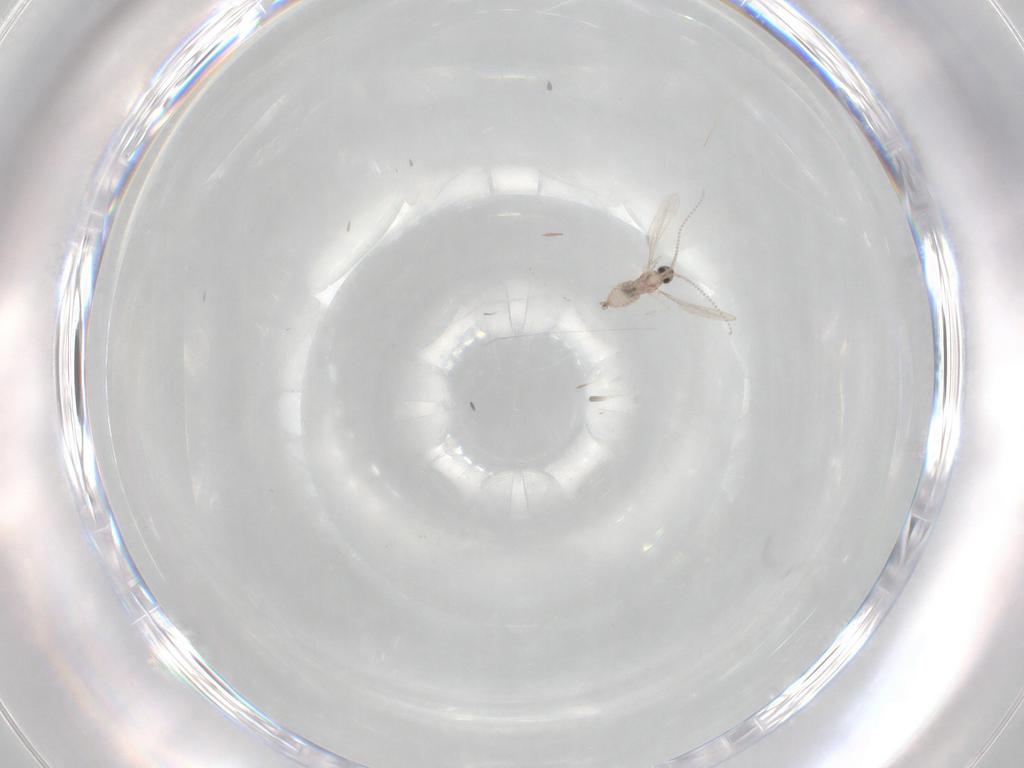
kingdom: Animalia
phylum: Arthropoda
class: Insecta
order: Diptera
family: Cecidomyiidae
